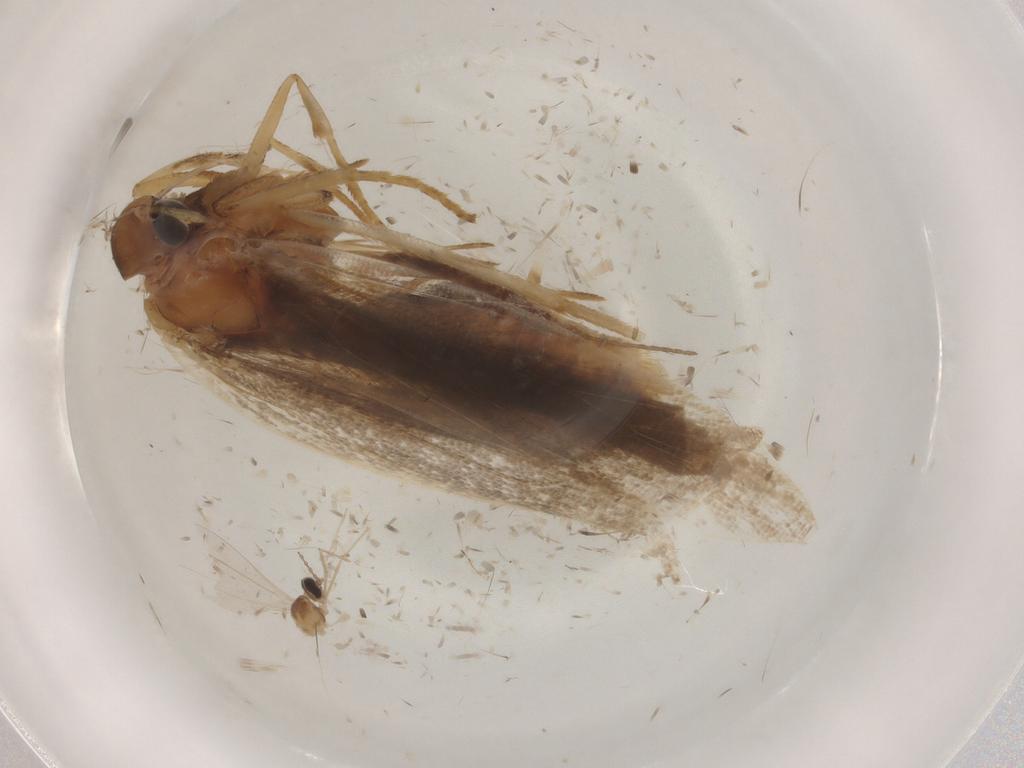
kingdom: Animalia
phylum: Arthropoda
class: Insecta
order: Lepidoptera
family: Gelechiidae
